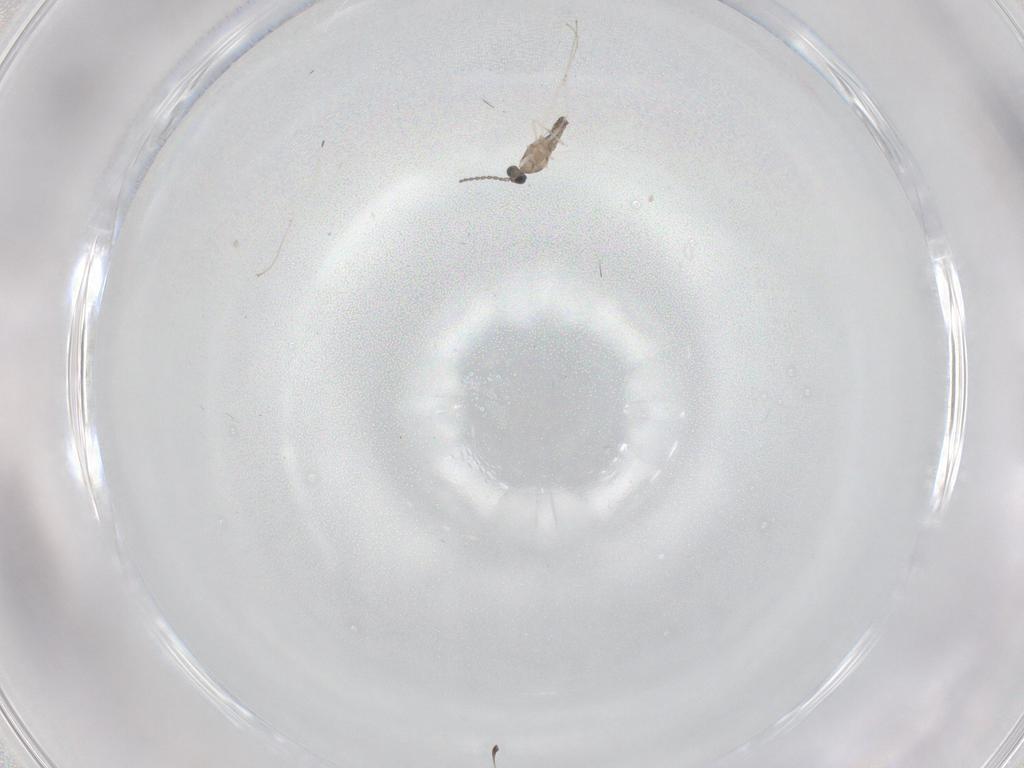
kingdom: Animalia
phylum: Arthropoda
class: Insecta
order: Diptera
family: Cecidomyiidae
